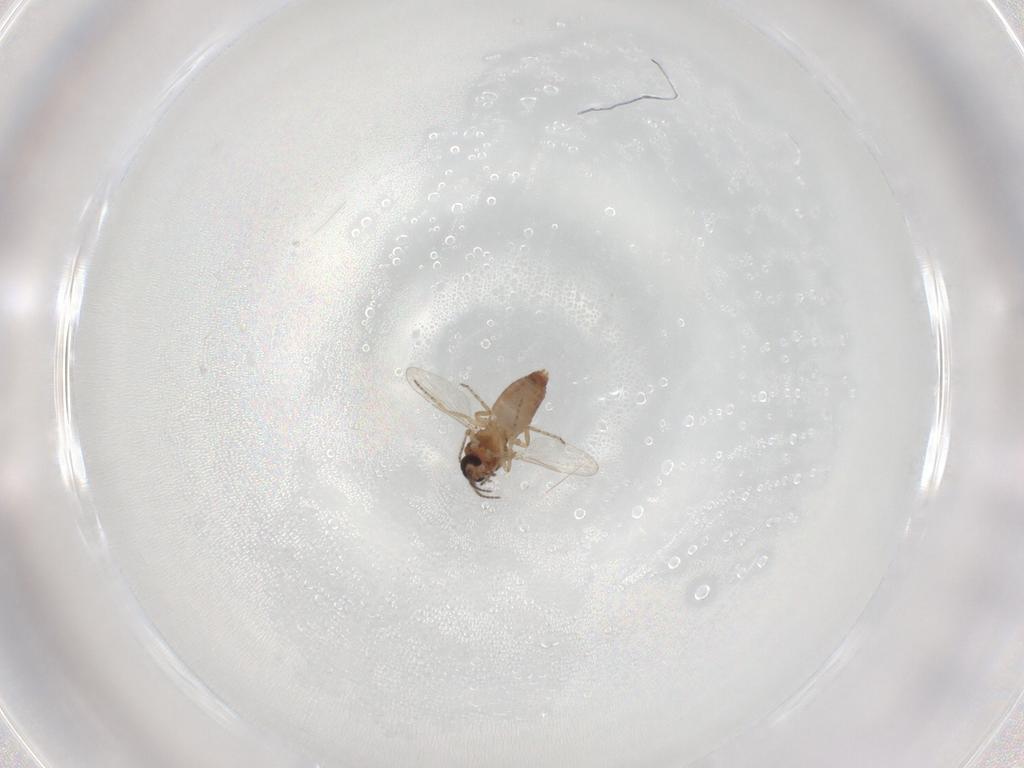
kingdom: Animalia
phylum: Arthropoda
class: Insecta
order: Diptera
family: Ceratopogonidae
